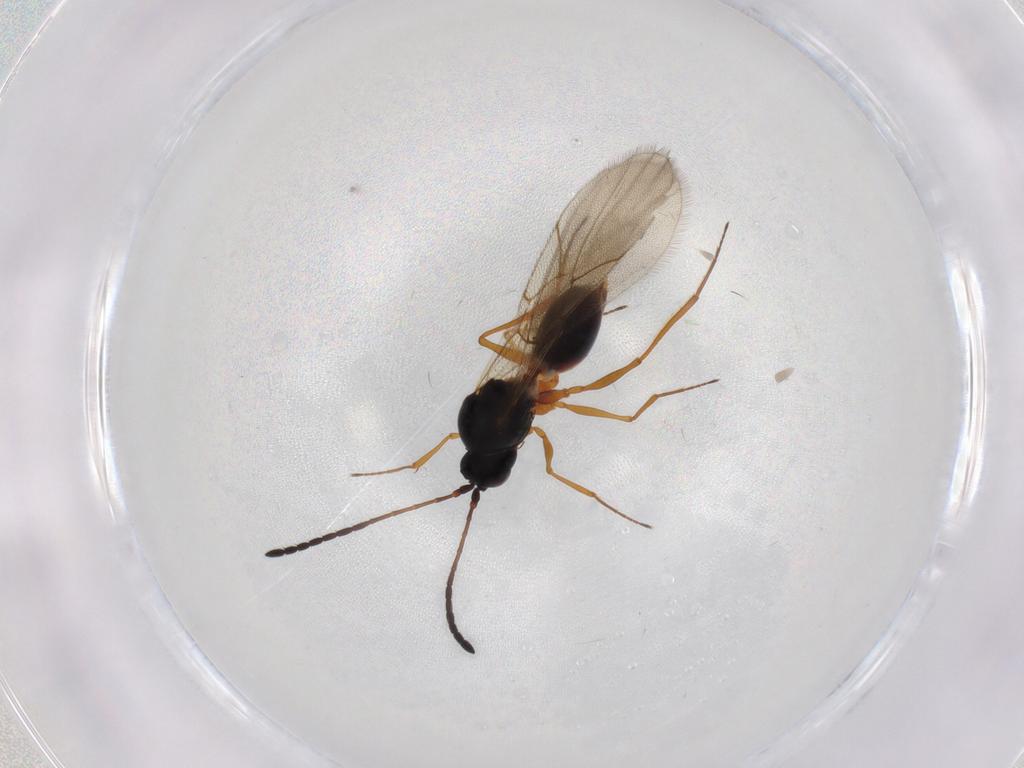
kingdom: Animalia
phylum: Arthropoda
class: Insecta
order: Hymenoptera
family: Figitidae
